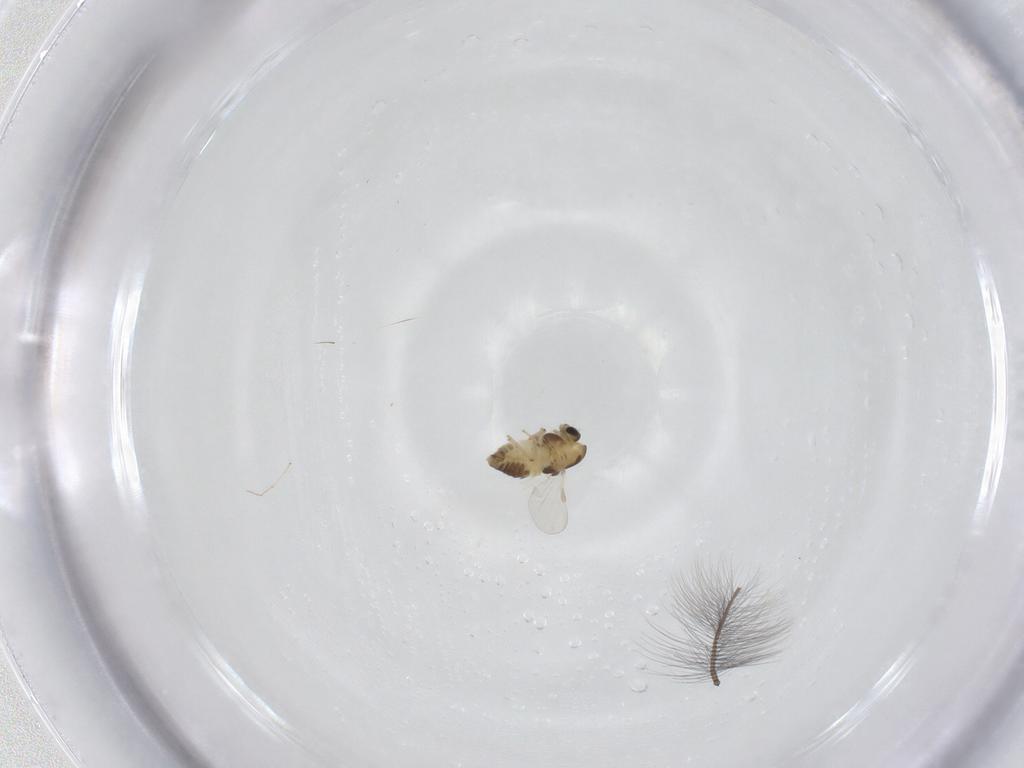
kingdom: Animalia
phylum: Arthropoda
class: Insecta
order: Diptera
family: Chironomidae
